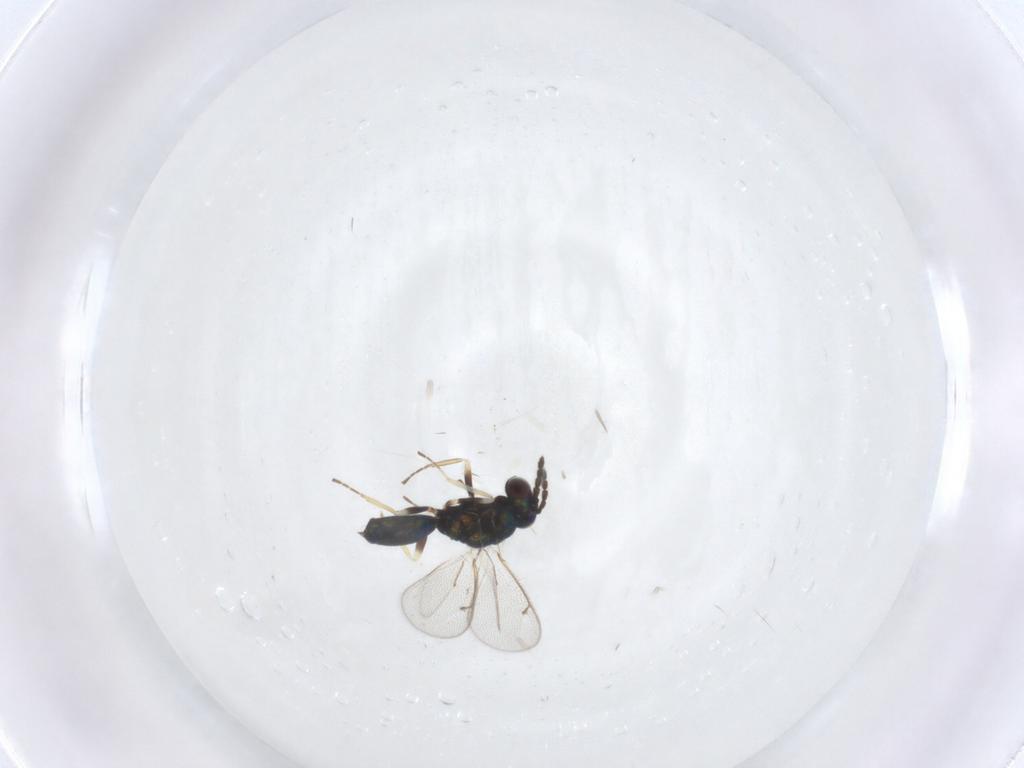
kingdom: Animalia
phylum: Arthropoda
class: Insecta
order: Hymenoptera
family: Eulophidae
